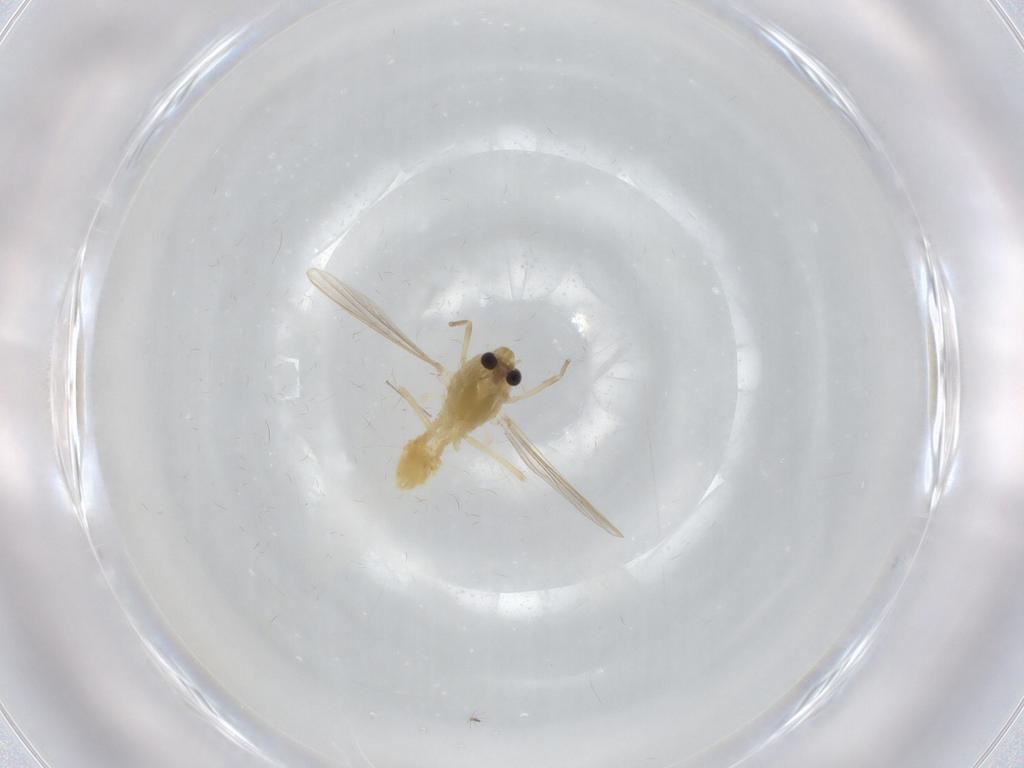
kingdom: Animalia
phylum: Arthropoda
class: Insecta
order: Diptera
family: Chironomidae
